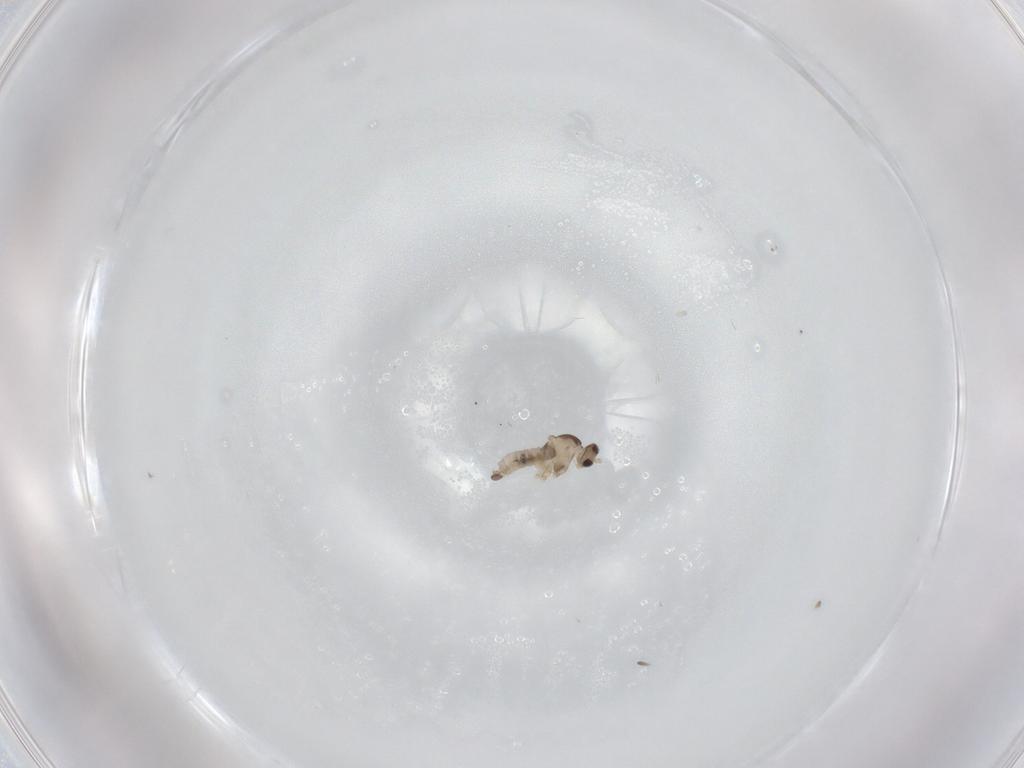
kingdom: Animalia
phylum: Arthropoda
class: Insecta
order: Diptera
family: Cecidomyiidae
